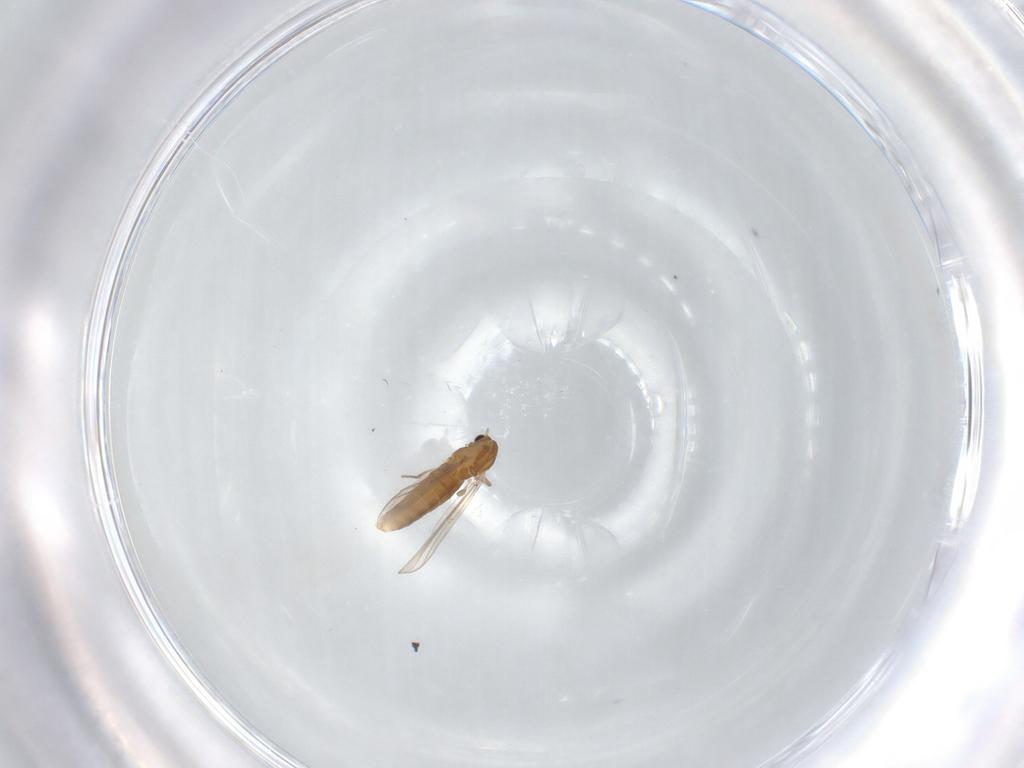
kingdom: Animalia
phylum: Arthropoda
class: Insecta
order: Diptera
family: Chironomidae
